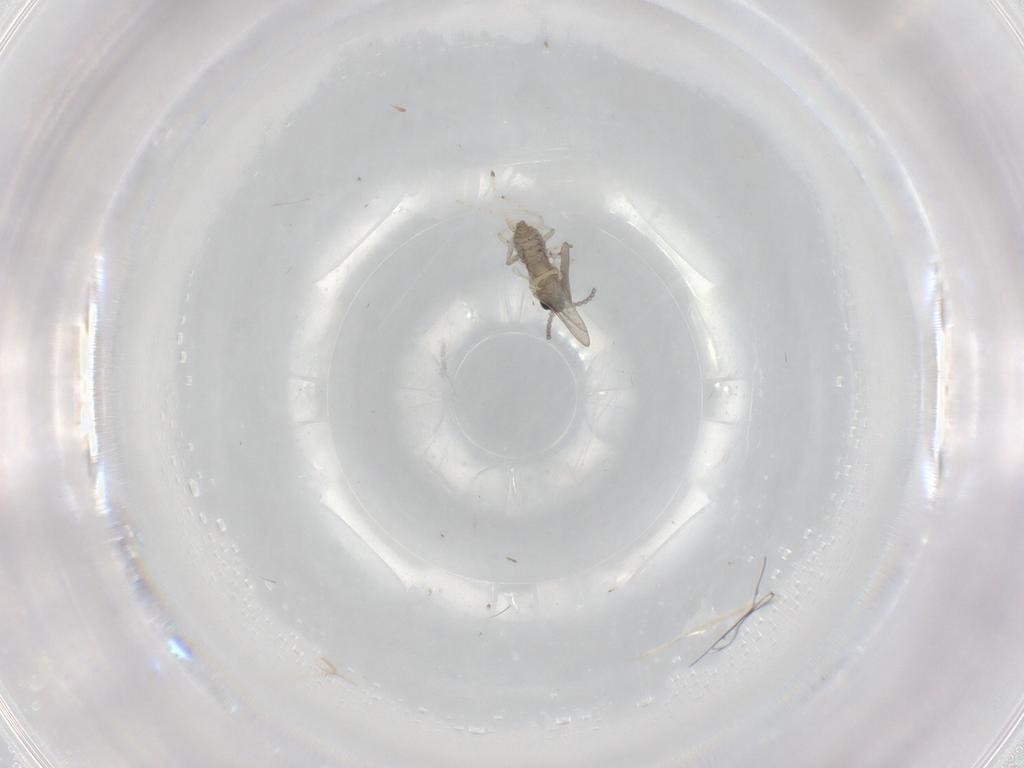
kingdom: Animalia
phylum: Arthropoda
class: Insecta
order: Diptera
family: Cecidomyiidae
